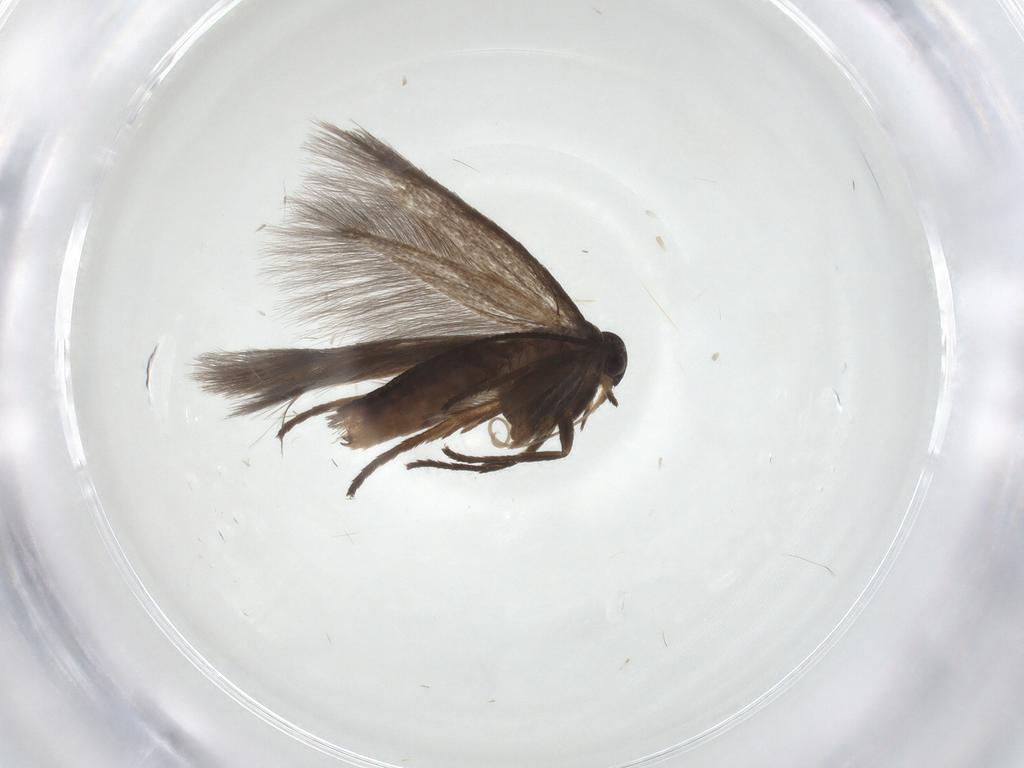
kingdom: Animalia
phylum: Arthropoda
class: Insecta
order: Lepidoptera
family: Scythrididae
